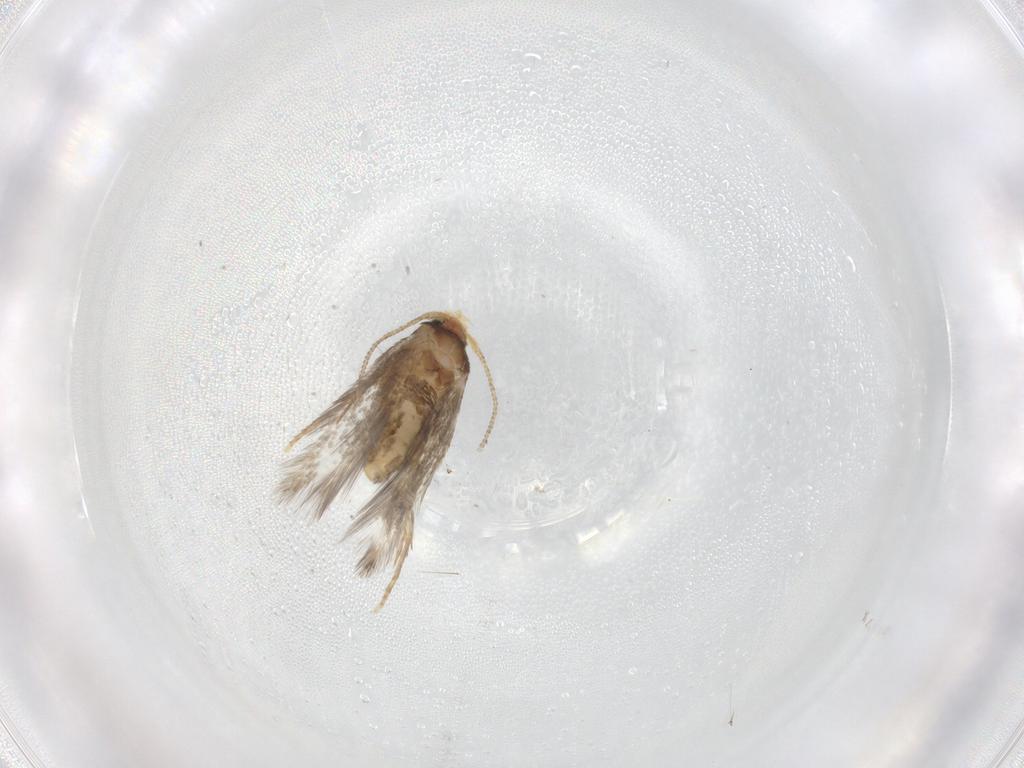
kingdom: Animalia
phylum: Arthropoda
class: Insecta
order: Lepidoptera
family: Nepticulidae
